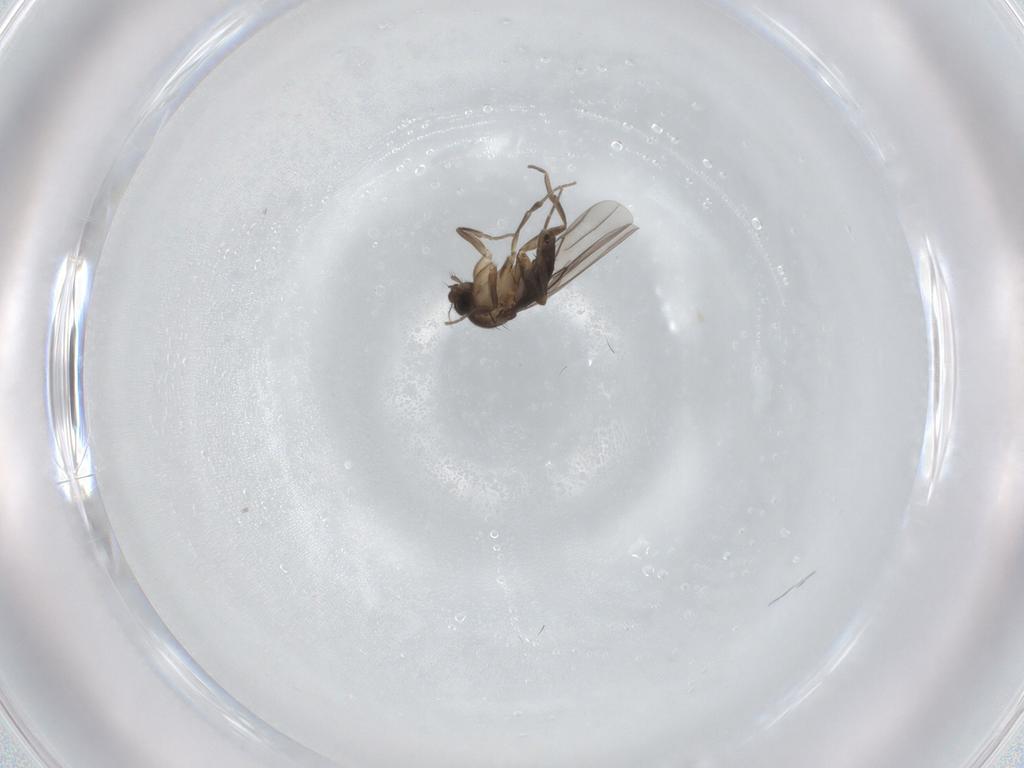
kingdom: Animalia
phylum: Arthropoda
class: Insecta
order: Diptera
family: Phoridae
